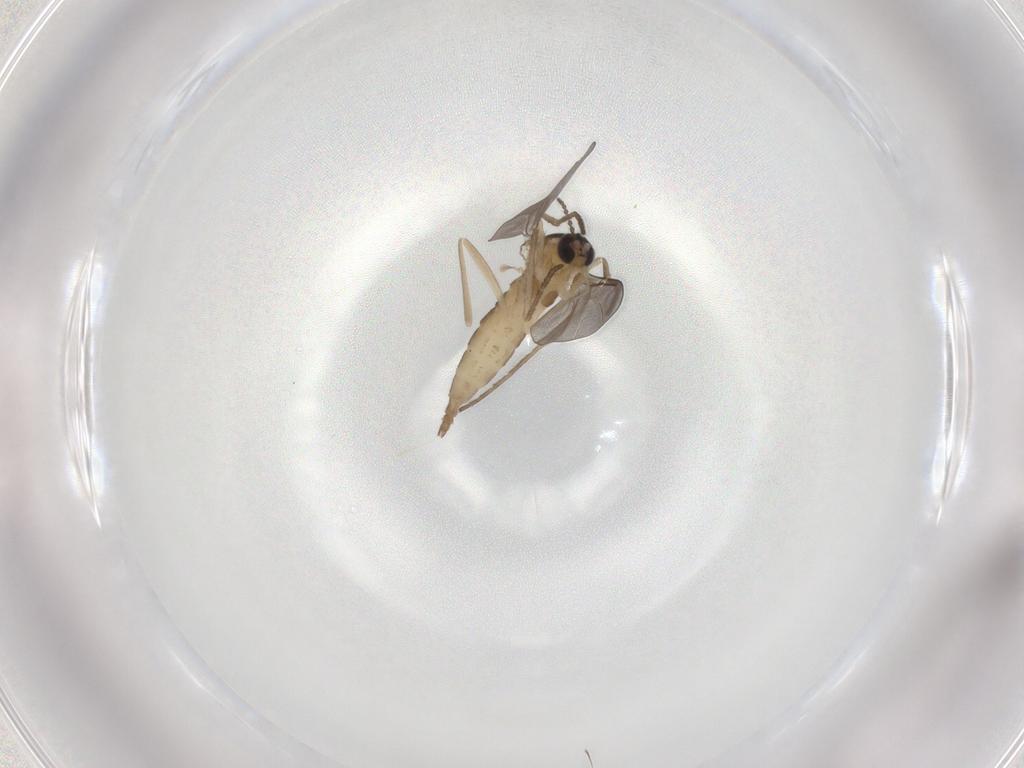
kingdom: Animalia
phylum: Arthropoda
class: Insecta
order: Diptera
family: Cecidomyiidae
